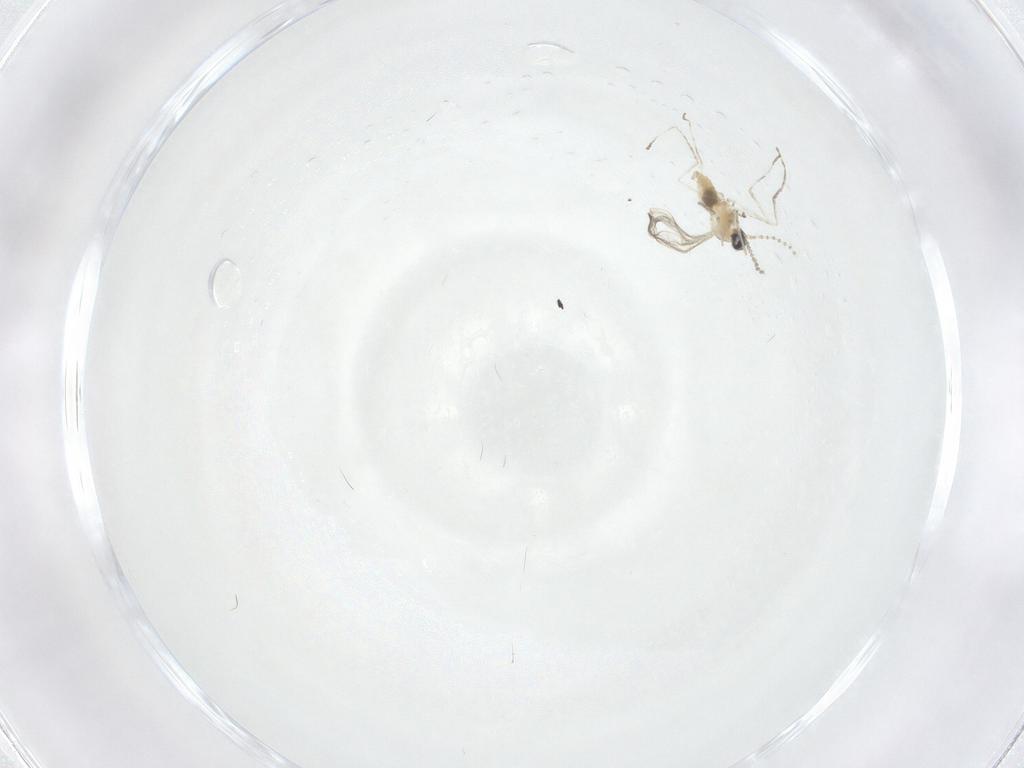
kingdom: Animalia
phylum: Arthropoda
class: Insecta
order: Diptera
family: Cecidomyiidae
